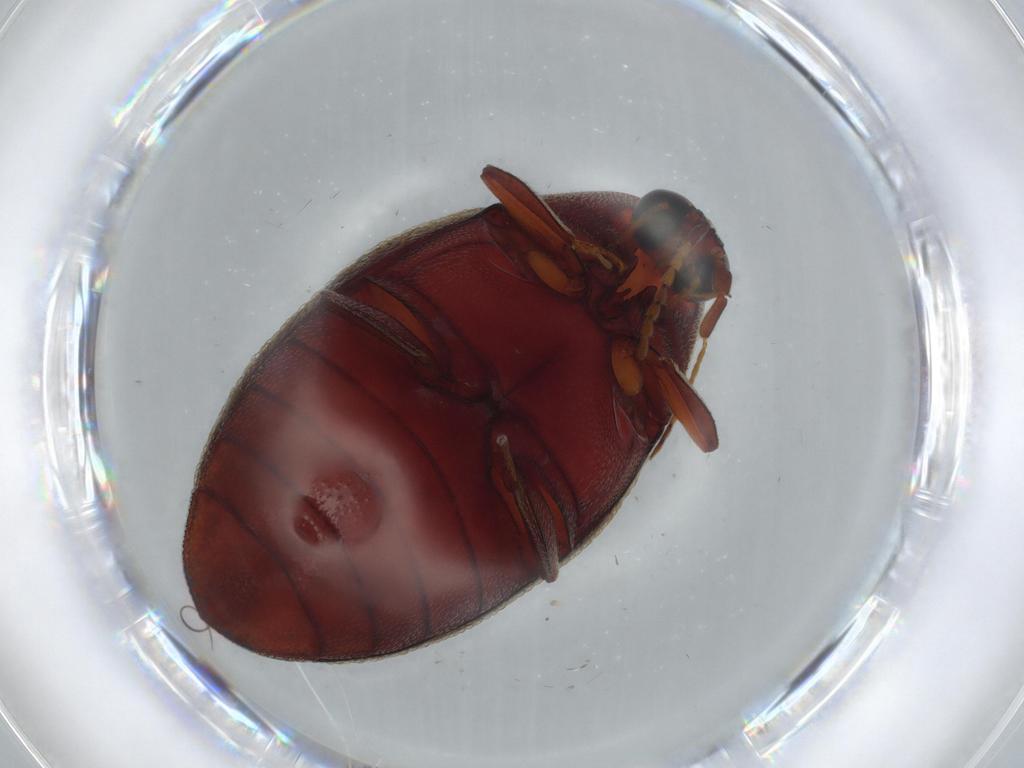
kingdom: Animalia
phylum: Arthropoda
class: Insecta
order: Coleoptera
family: Chelonariidae
